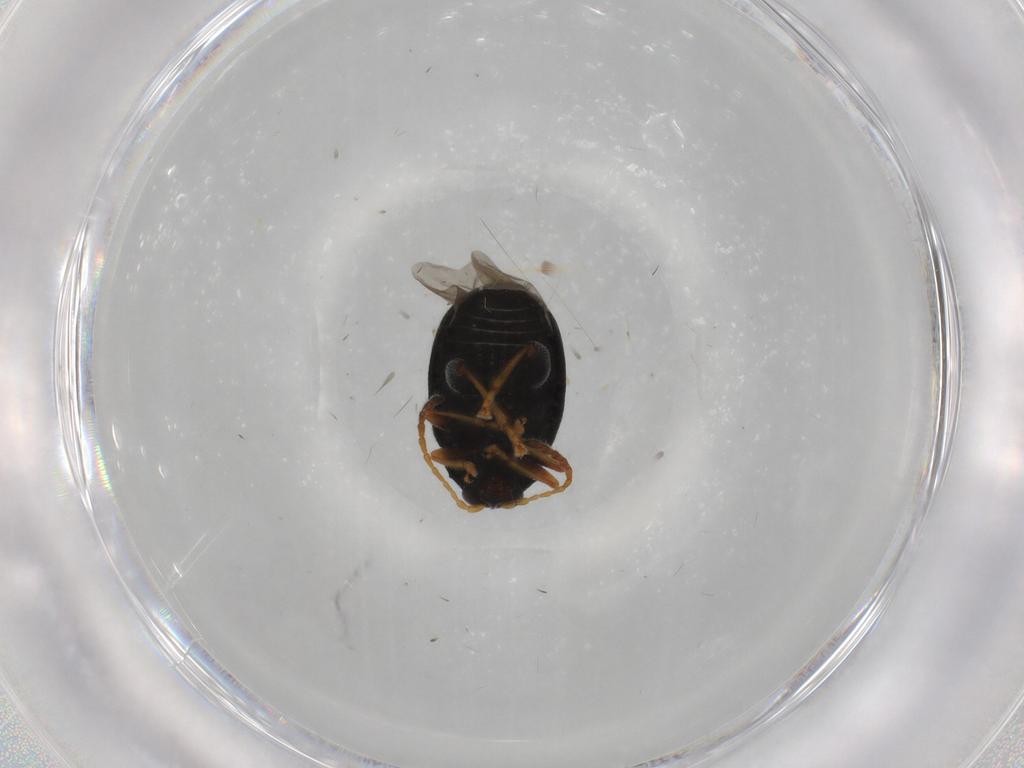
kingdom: Animalia
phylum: Arthropoda
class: Insecta
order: Coleoptera
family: Chrysomelidae
